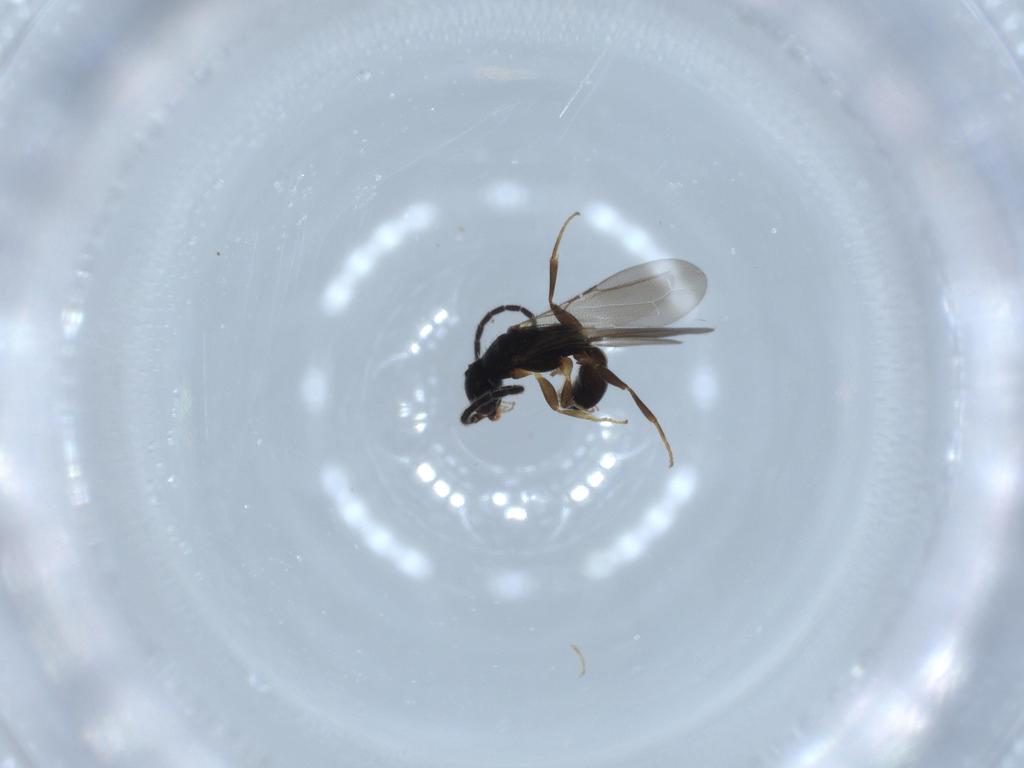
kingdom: Animalia
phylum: Arthropoda
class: Insecta
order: Hymenoptera
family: Bethylidae
